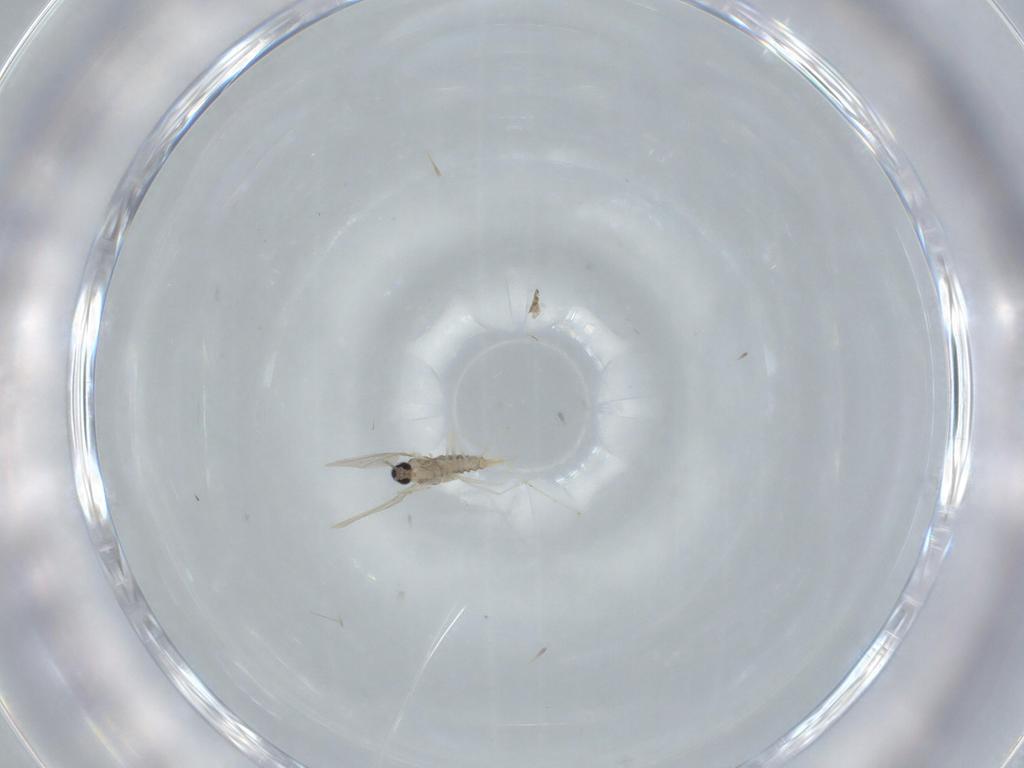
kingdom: Animalia
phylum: Arthropoda
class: Insecta
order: Diptera
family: Cecidomyiidae
